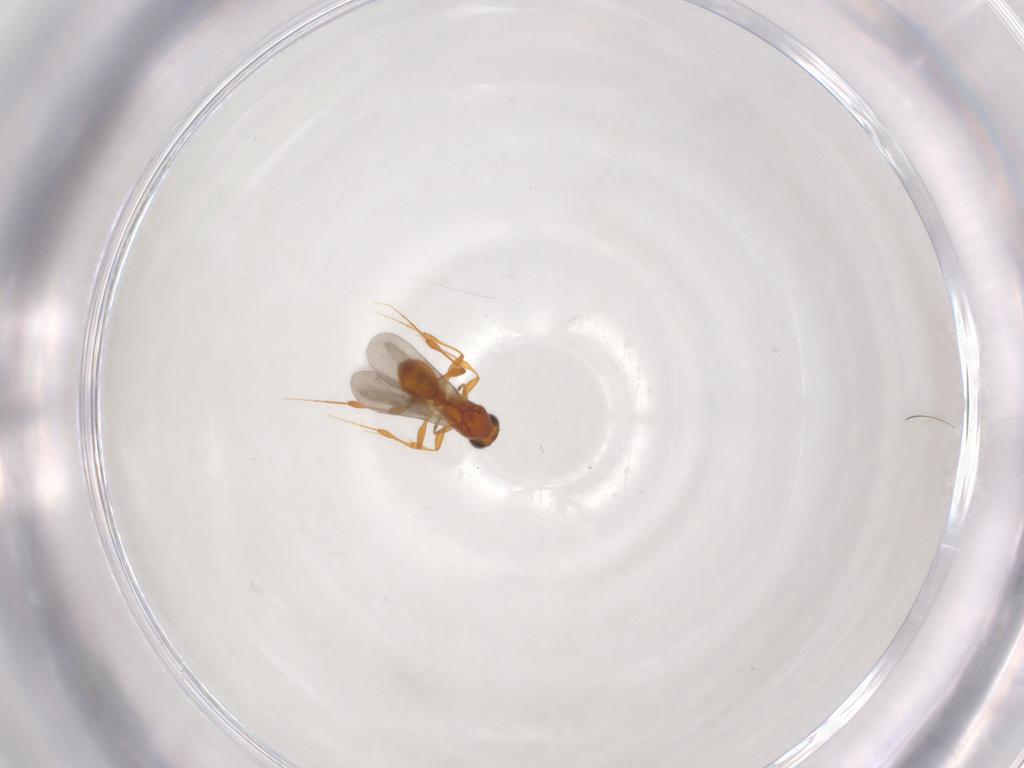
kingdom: Animalia
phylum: Arthropoda
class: Insecta
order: Hymenoptera
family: Platygastridae
